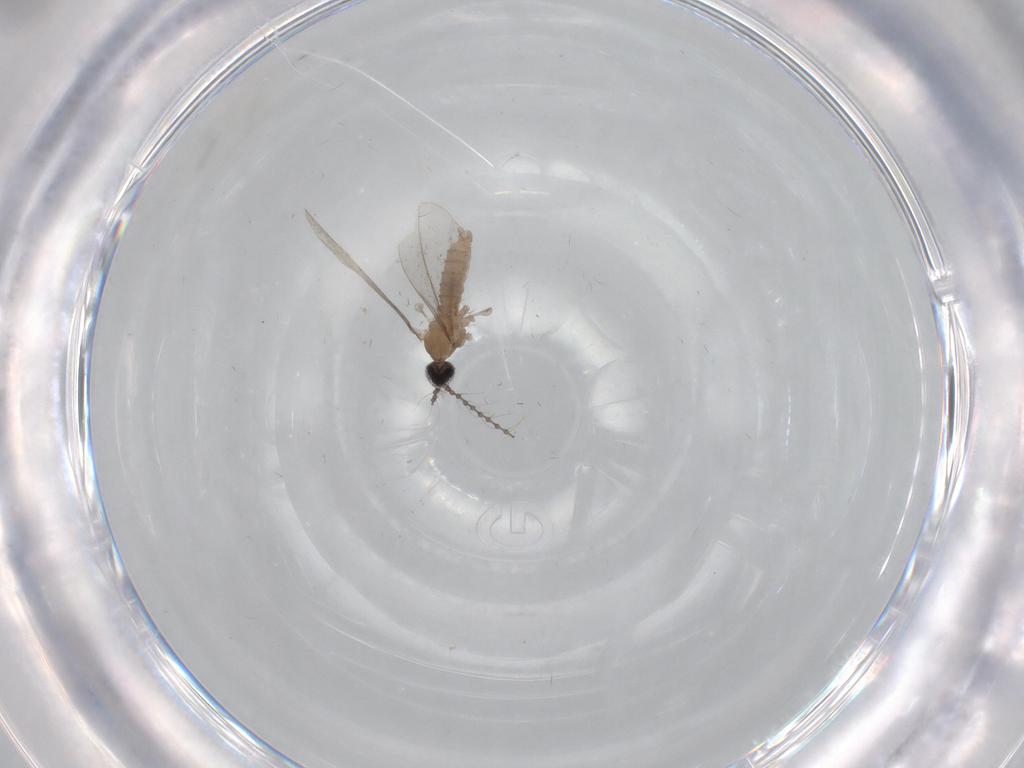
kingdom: Animalia
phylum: Arthropoda
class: Insecta
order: Diptera
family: Cecidomyiidae
